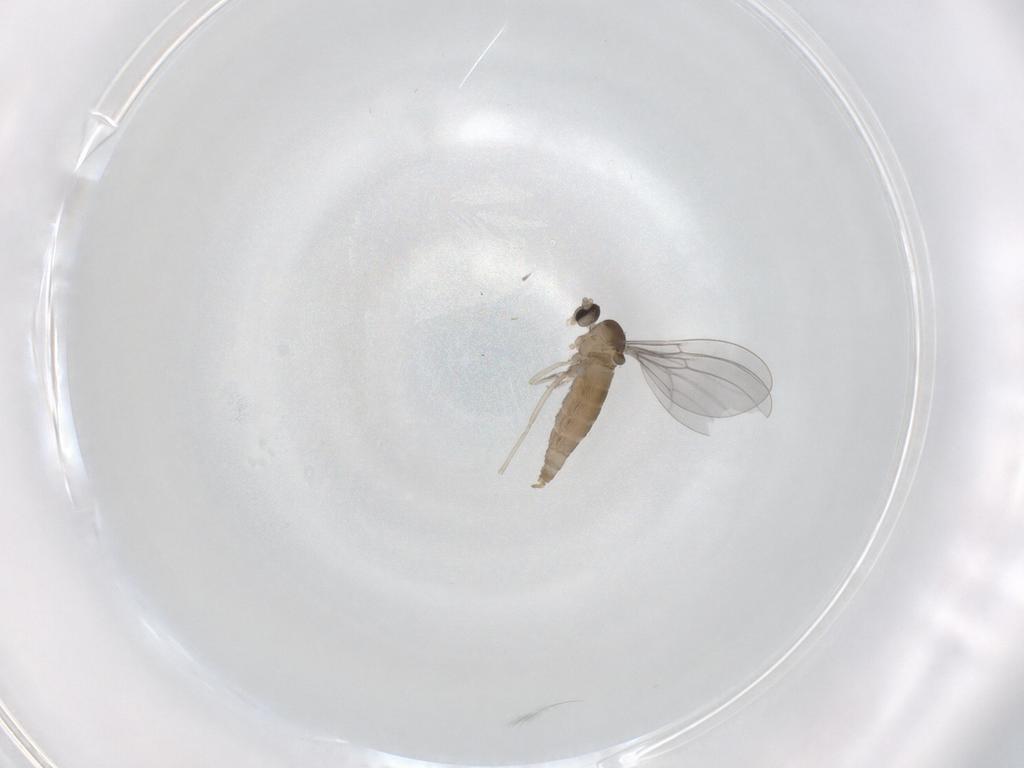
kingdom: Animalia
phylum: Arthropoda
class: Insecta
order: Diptera
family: Cecidomyiidae
